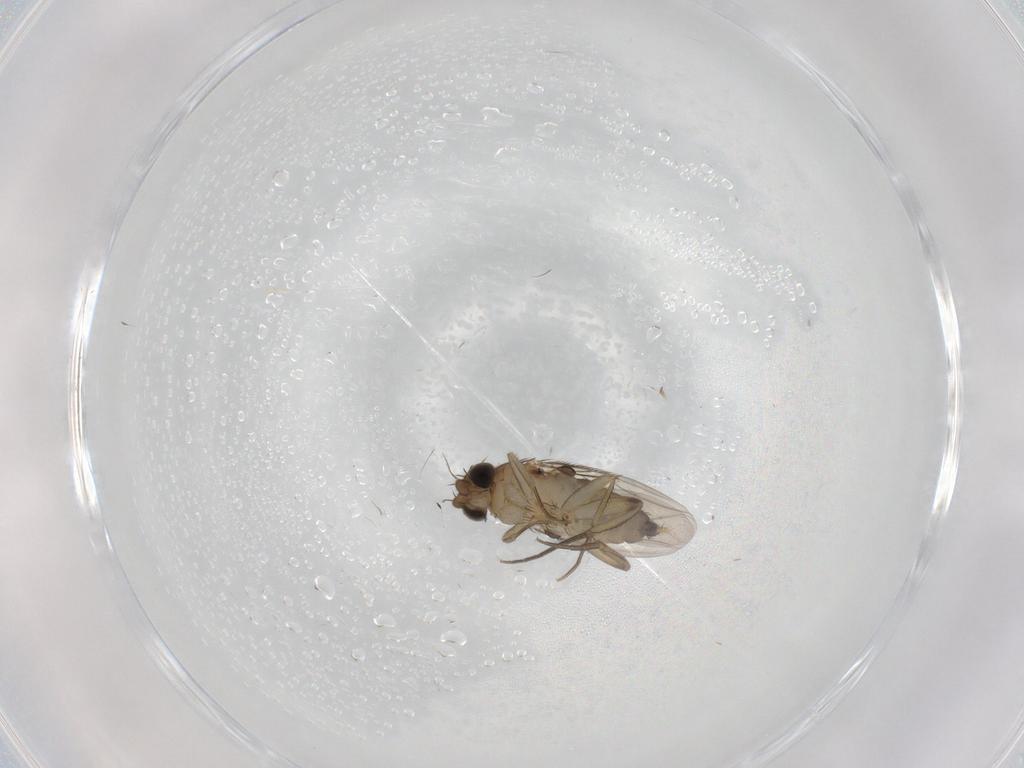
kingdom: Animalia
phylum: Arthropoda
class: Insecta
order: Diptera
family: Phoridae
